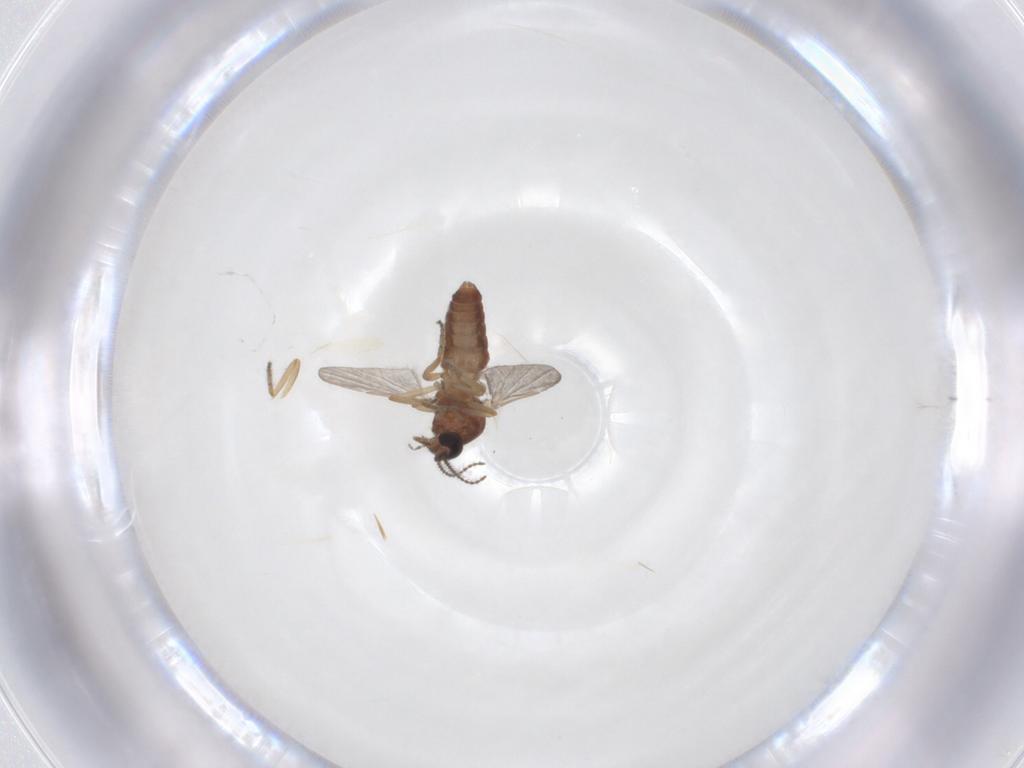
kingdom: Animalia
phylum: Arthropoda
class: Insecta
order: Diptera
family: Ceratopogonidae
